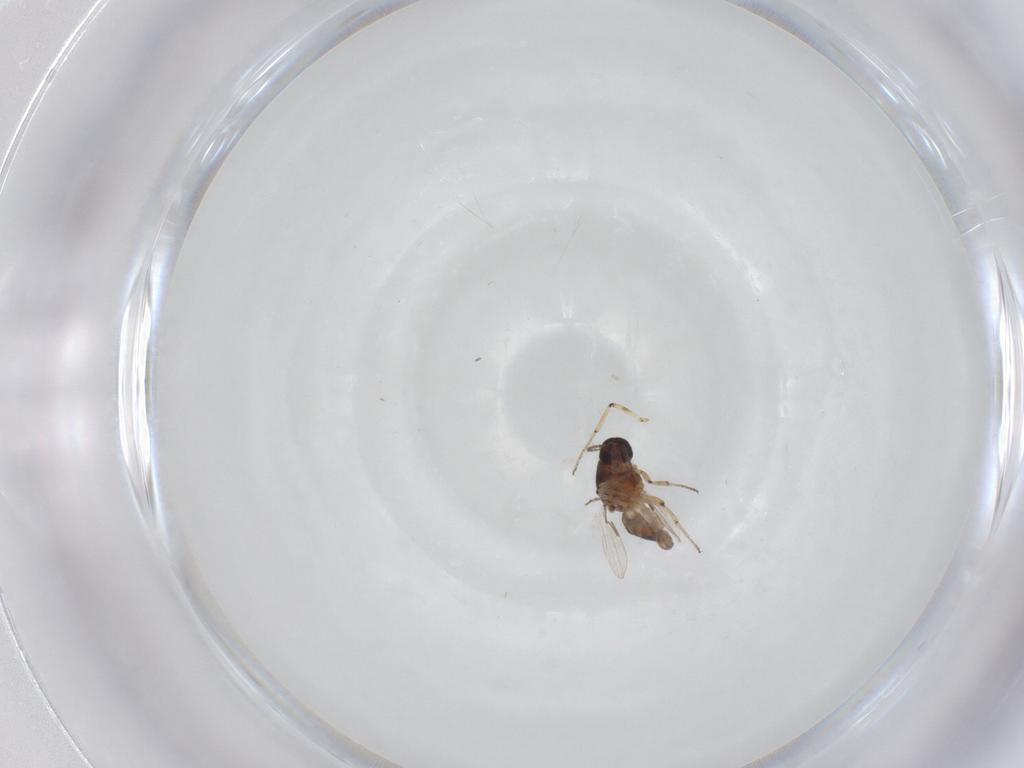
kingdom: Animalia
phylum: Arthropoda
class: Insecta
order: Diptera
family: Ceratopogonidae
